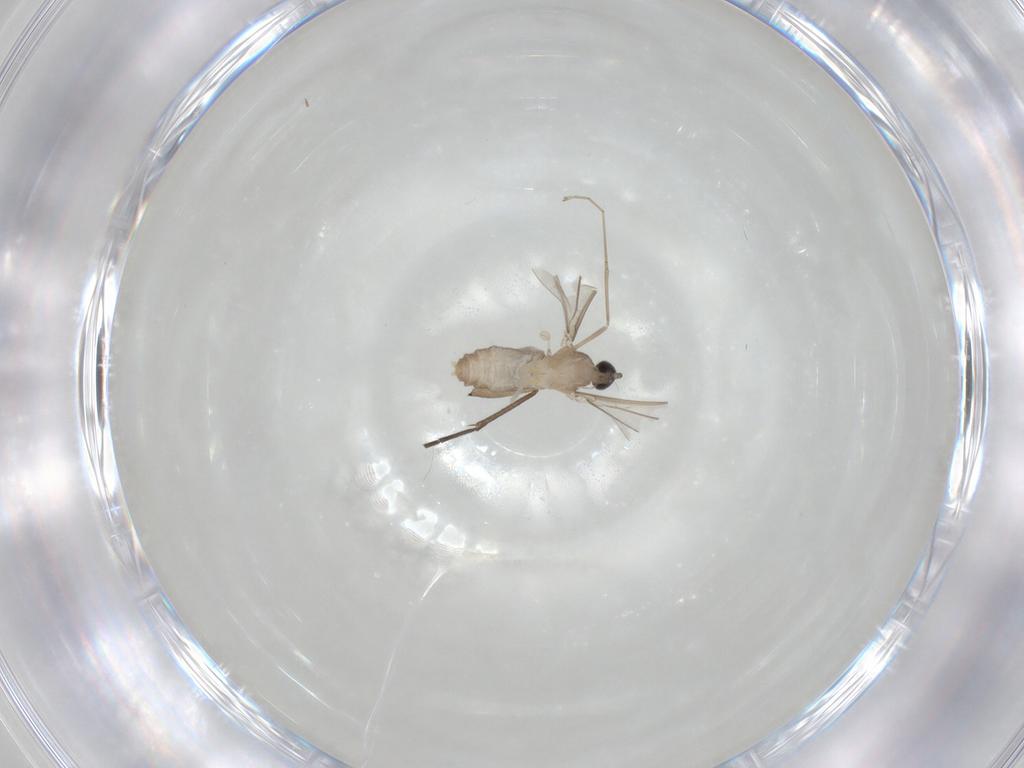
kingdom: Animalia
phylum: Arthropoda
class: Insecta
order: Diptera
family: Cecidomyiidae
